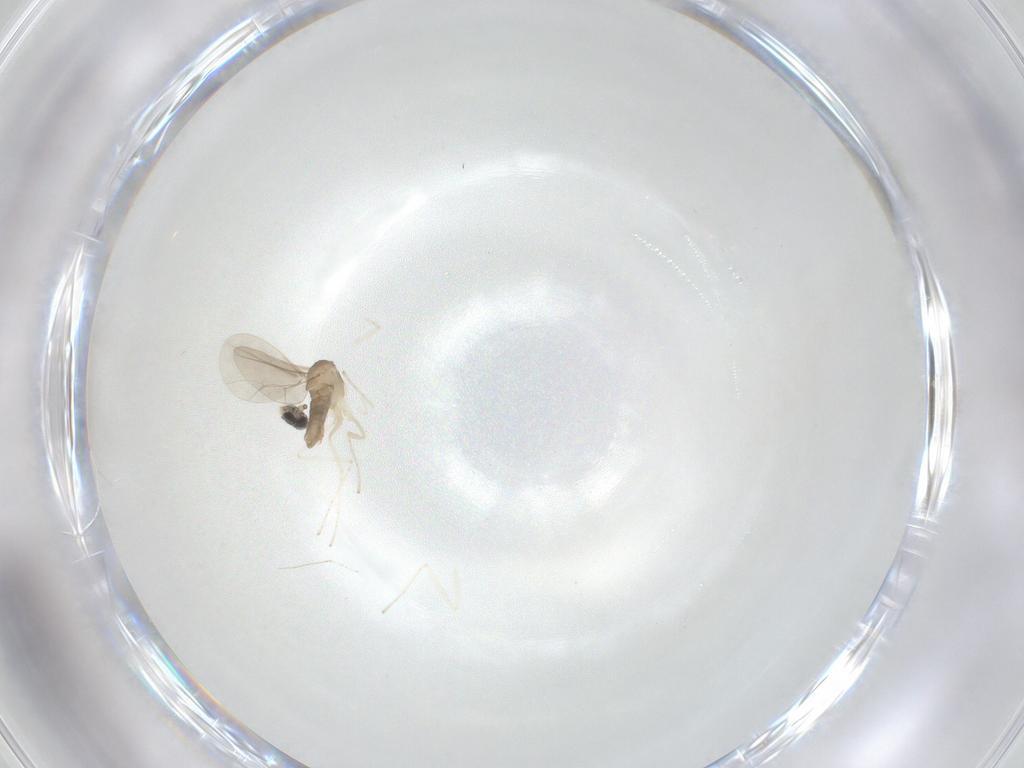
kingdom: Animalia
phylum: Arthropoda
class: Insecta
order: Diptera
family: Cecidomyiidae
